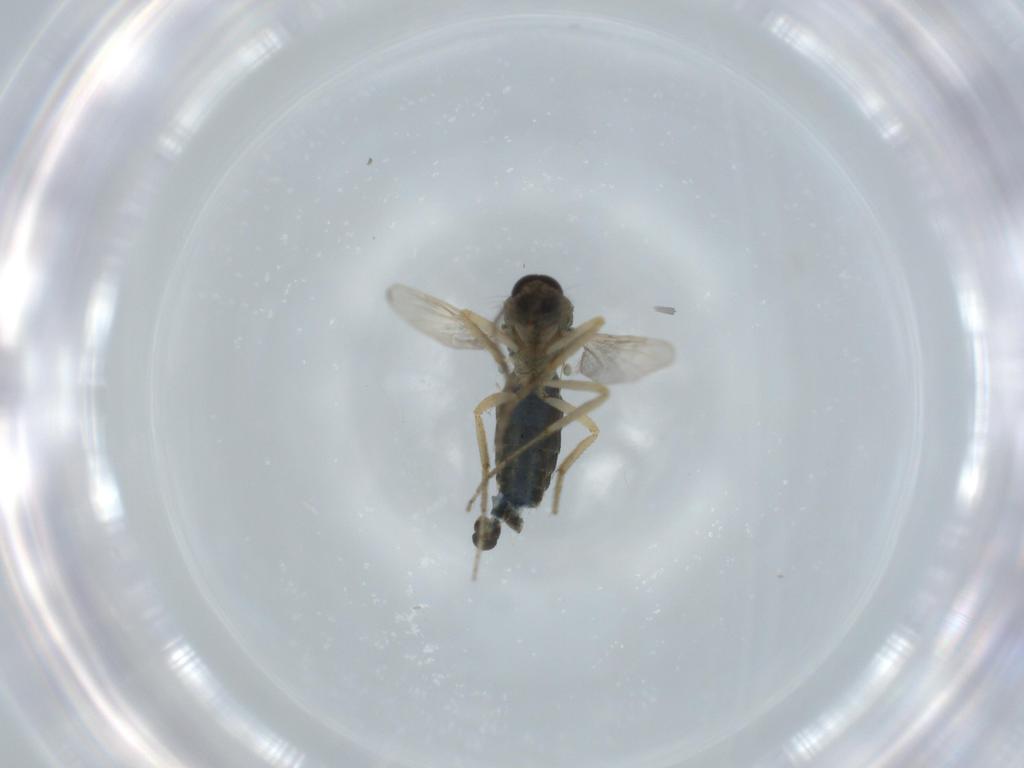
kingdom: Animalia
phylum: Arthropoda
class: Insecta
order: Diptera
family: Ceratopogonidae
